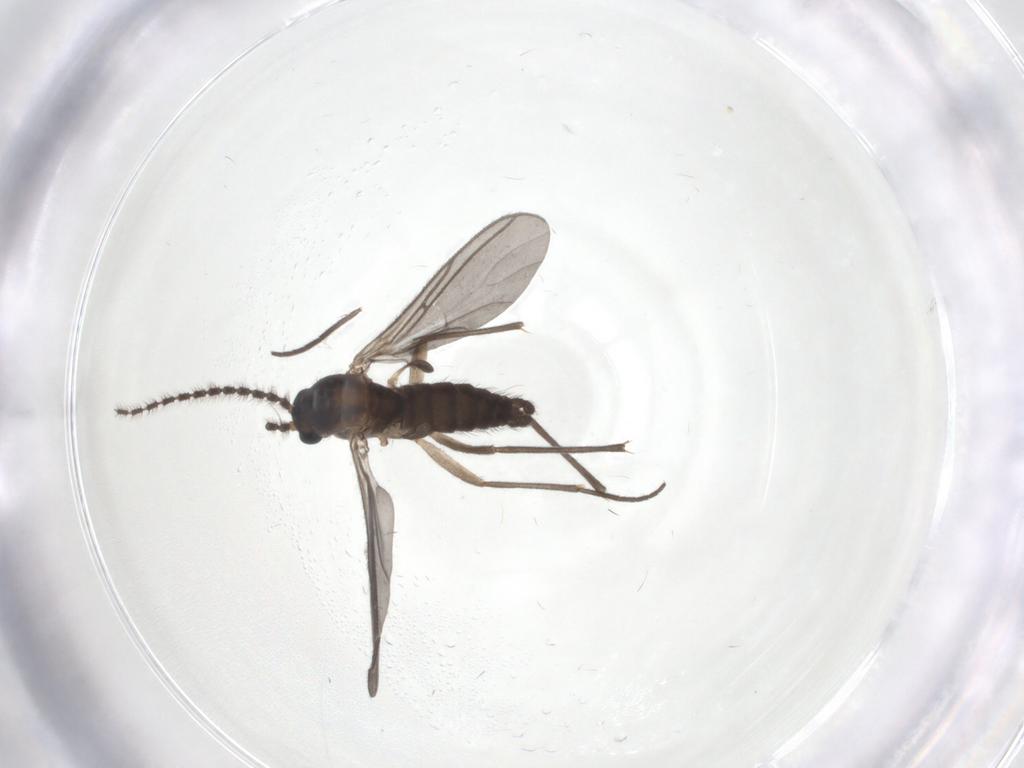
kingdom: Animalia
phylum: Arthropoda
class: Insecta
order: Diptera
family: Sciaridae
